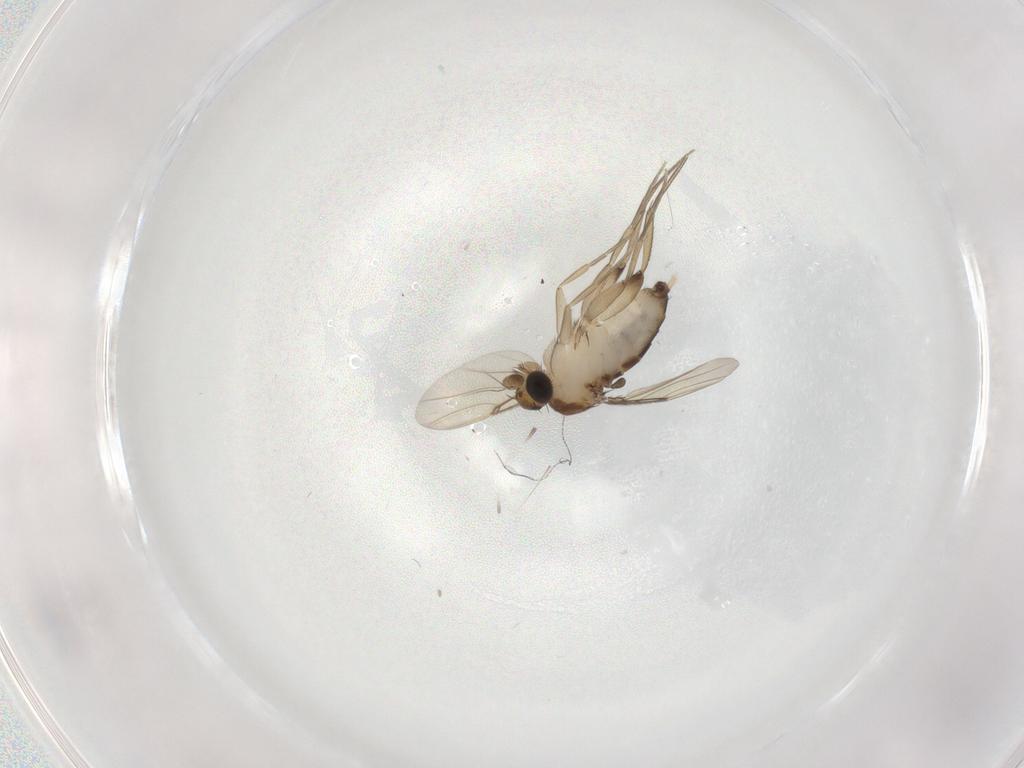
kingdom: Animalia
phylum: Arthropoda
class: Insecta
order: Diptera
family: Phoridae
